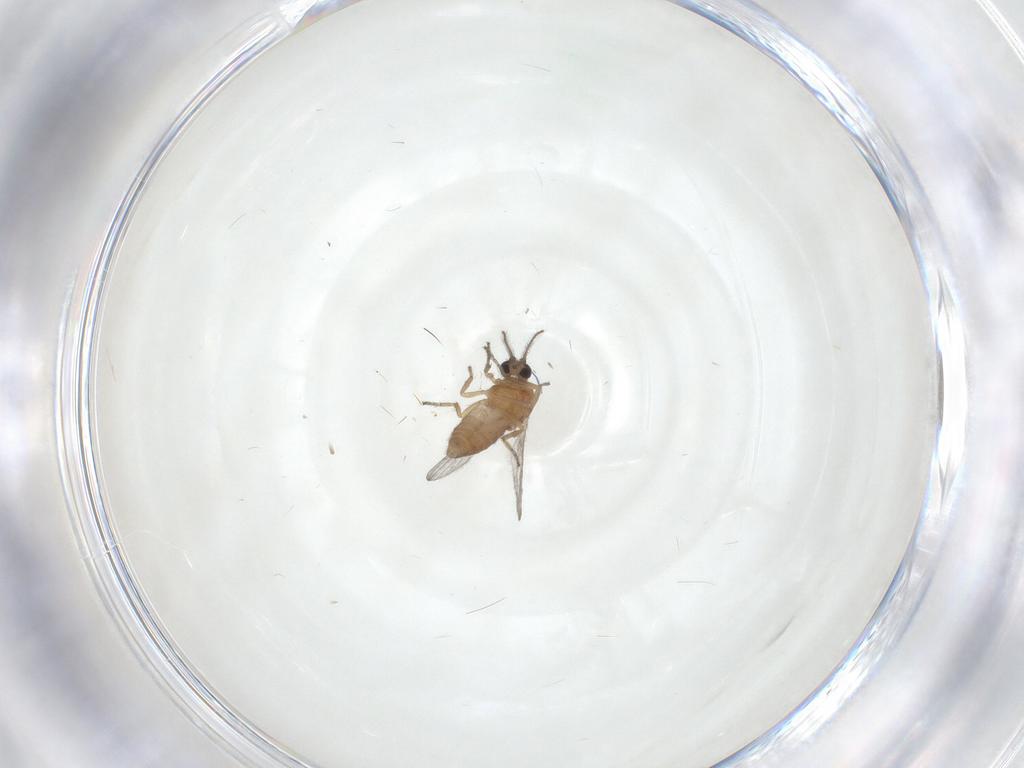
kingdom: Animalia
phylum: Arthropoda
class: Insecta
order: Diptera
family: Ceratopogonidae
